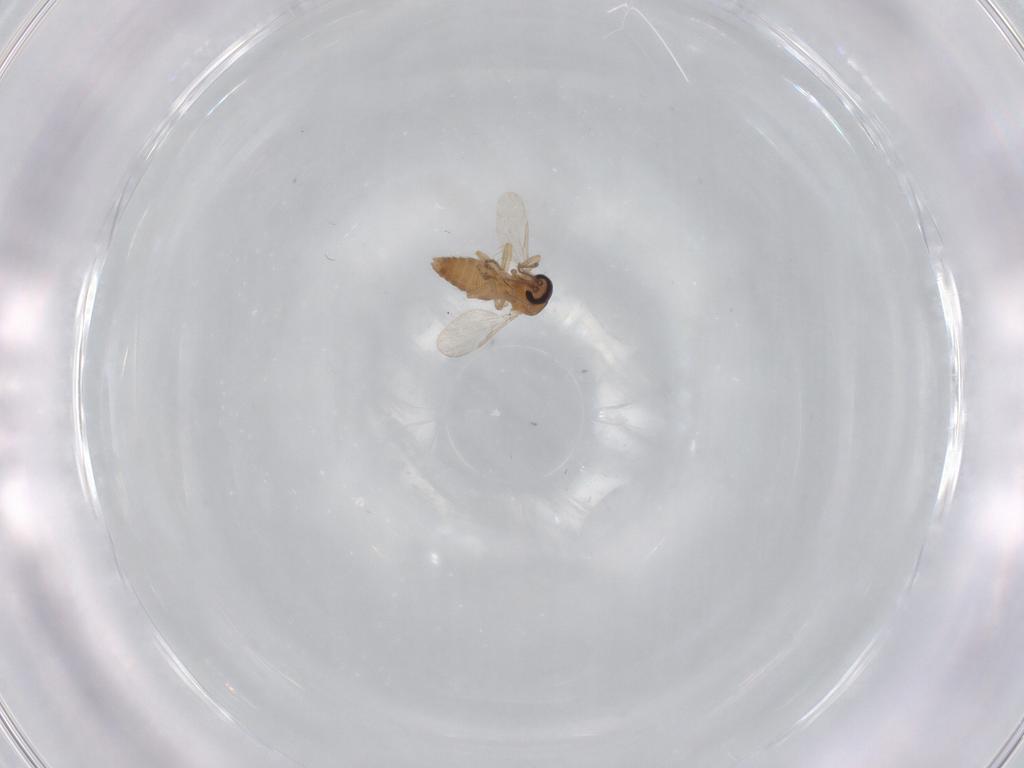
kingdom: Animalia
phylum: Arthropoda
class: Insecta
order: Diptera
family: Ceratopogonidae
